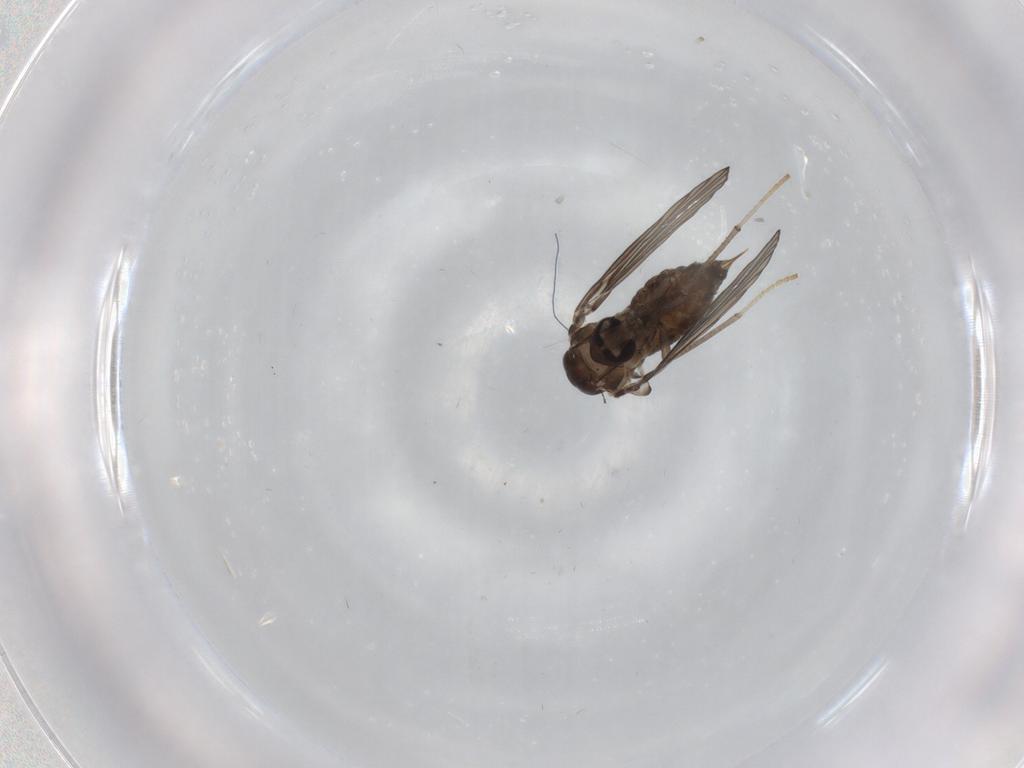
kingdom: Animalia
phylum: Arthropoda
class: Insecta
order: Diptera
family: Psychodidae
